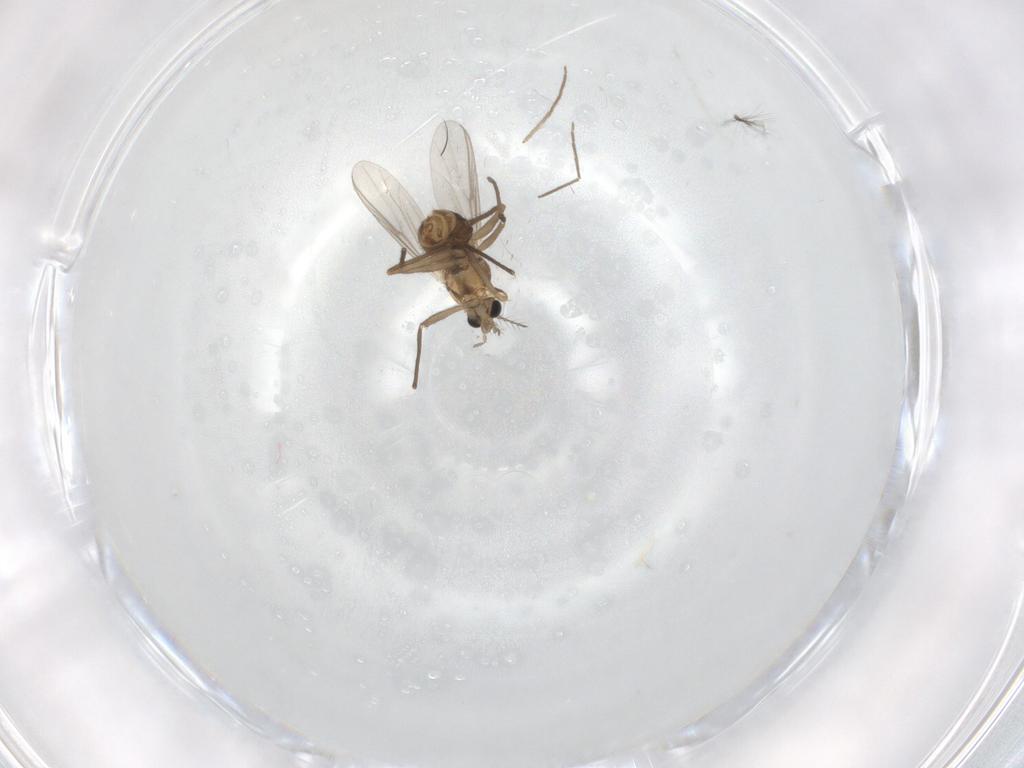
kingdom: Animalia
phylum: Arthropoda
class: Insecta
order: Diptera
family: Chironomidae
